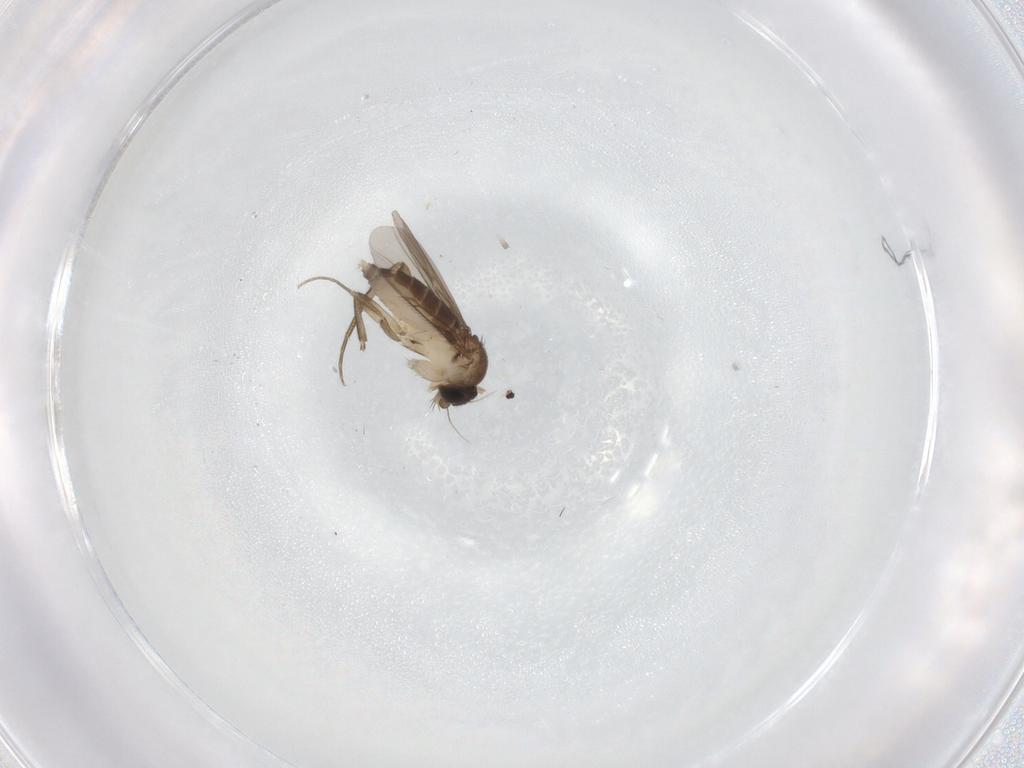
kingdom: Animalia
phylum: Arthropoda
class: Insecta
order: Diptera
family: Phoridae
